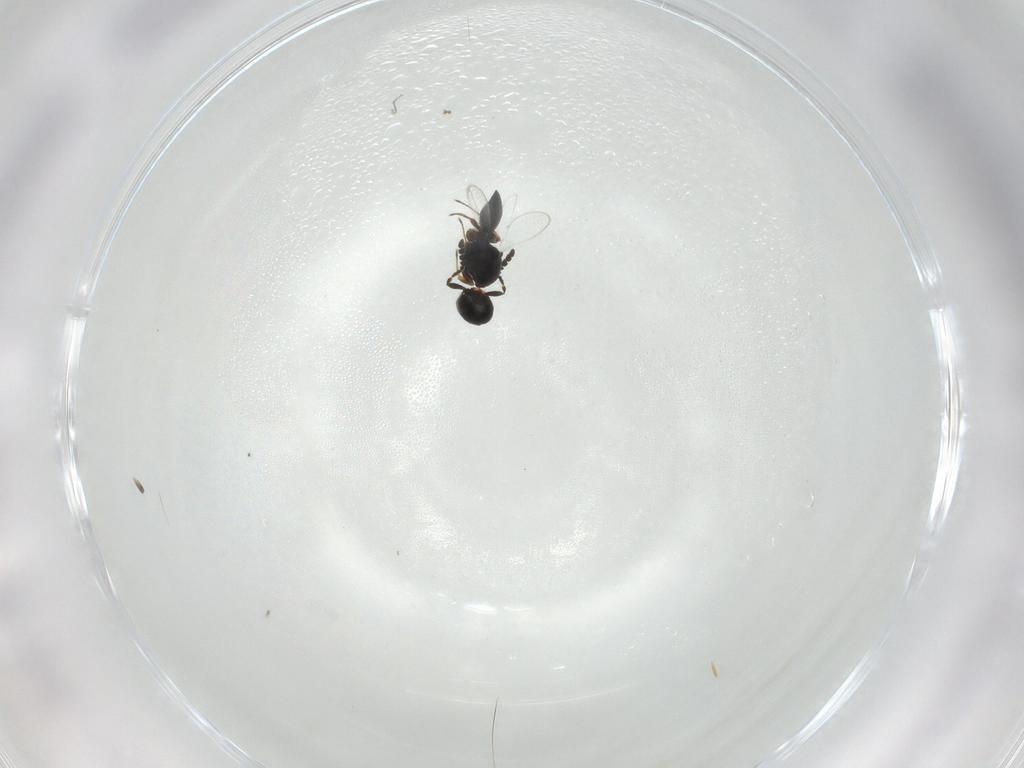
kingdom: Animalia
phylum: Arthropoda
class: Insecta
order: Hymenoptera
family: Platygastridae
